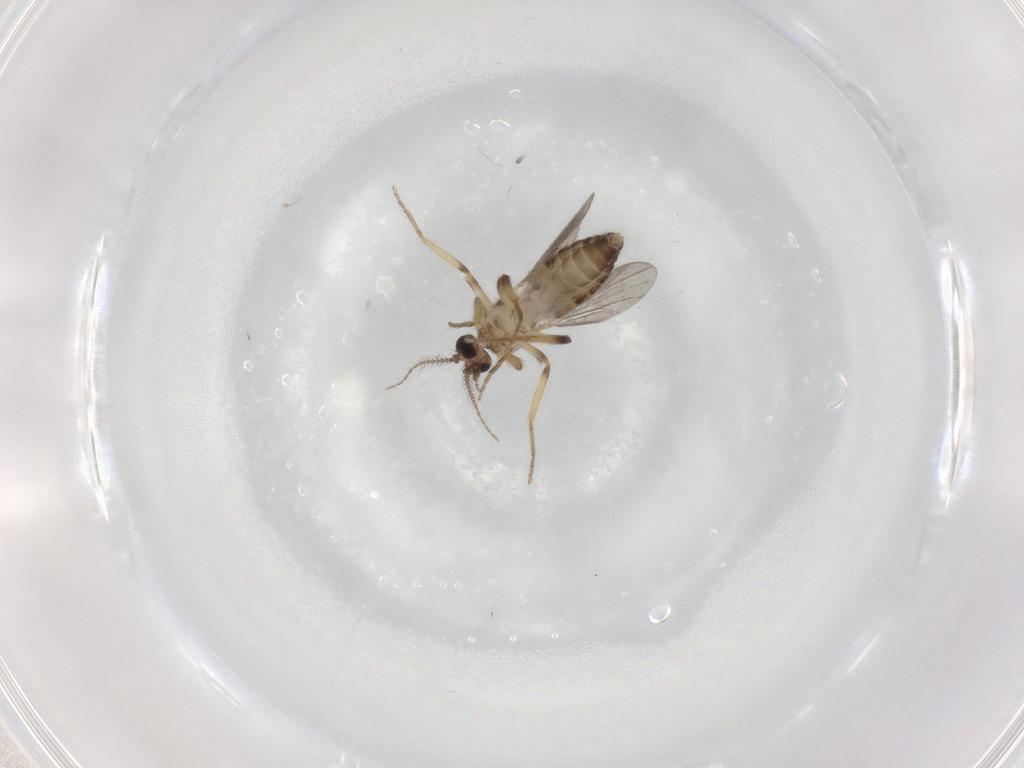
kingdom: Animalia
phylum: Arthropoda
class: Insecta
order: Diptera
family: Ceratopogonidae
